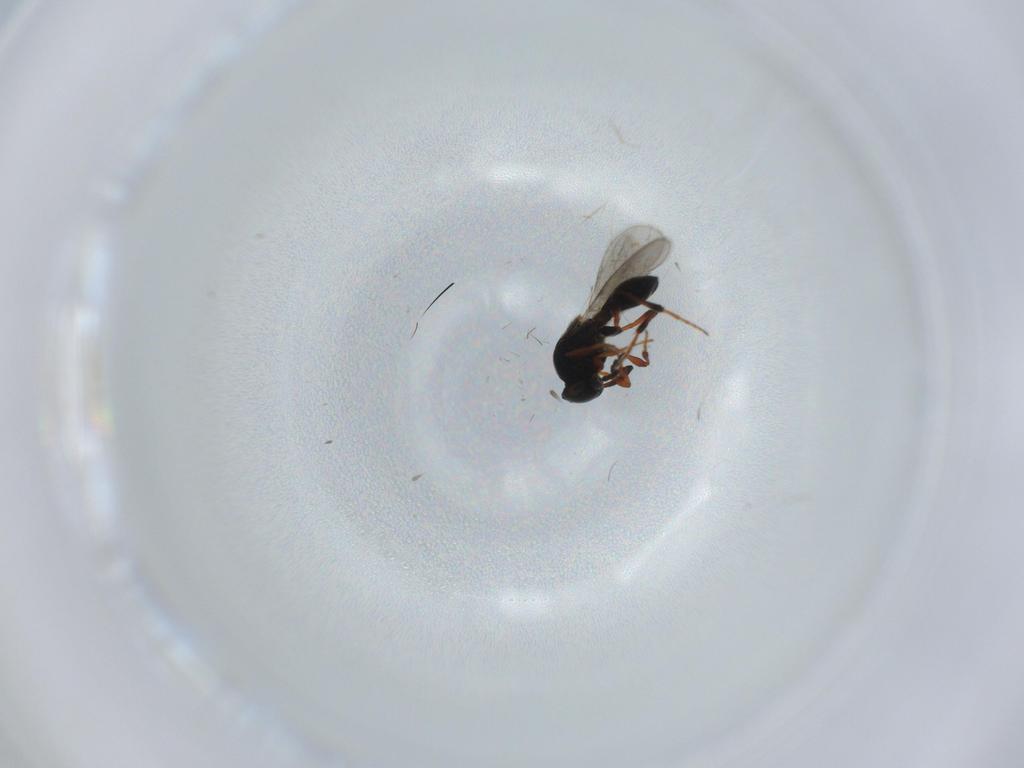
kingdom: Animalia
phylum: Arthropoda
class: Insecta
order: Hymenoptera
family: Platygastridae
